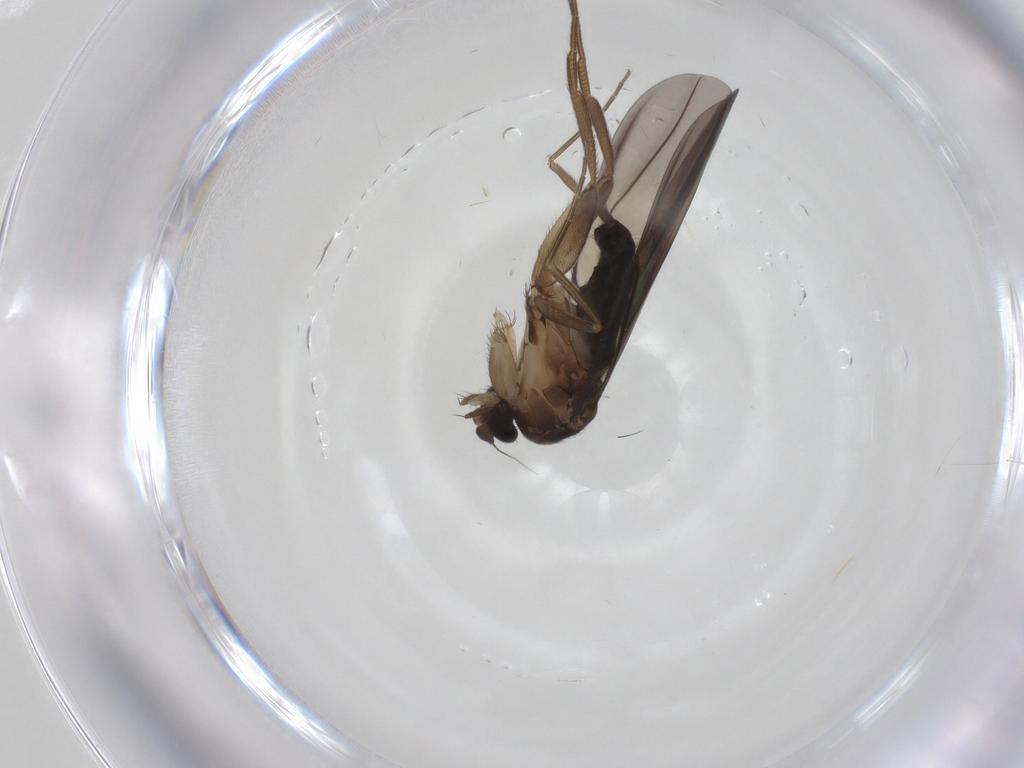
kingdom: Animalia
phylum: Arthropoda
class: Insecta
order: Diptera
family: Phoridae
